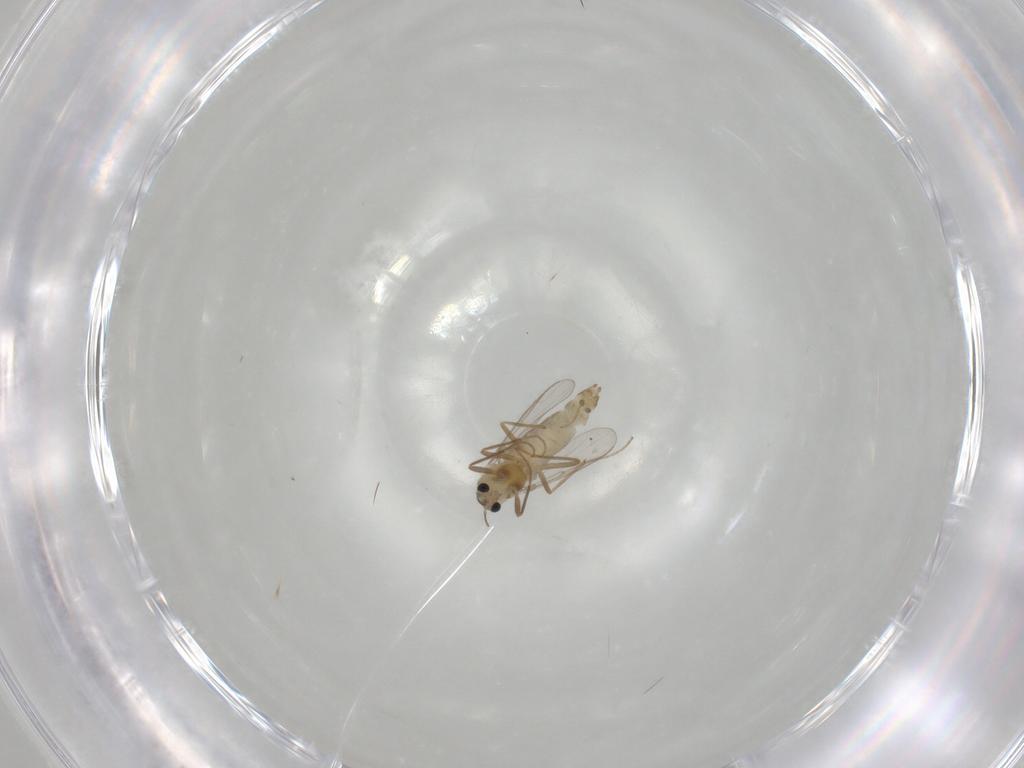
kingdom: Animalia
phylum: Arthropoda
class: Insecta
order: Diptera
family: Chironomidae
